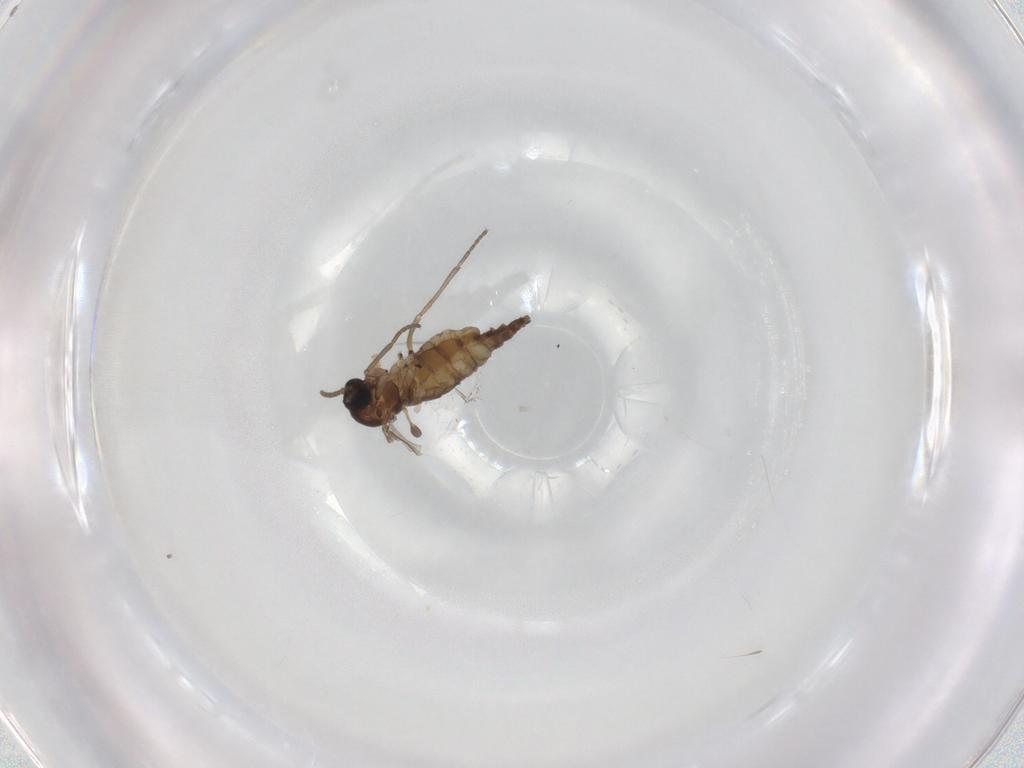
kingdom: Animalia
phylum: Arthropoda
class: Insecta
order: Diptera
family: Sciaridae
